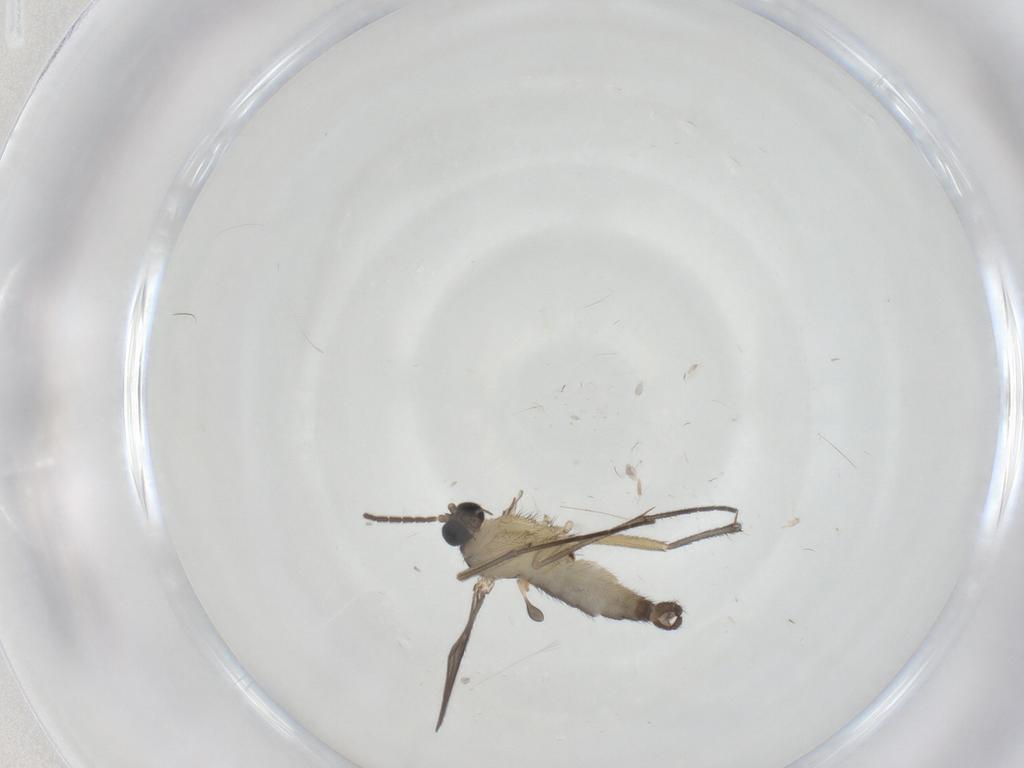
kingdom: Animalia
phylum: Arthropoda
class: Insecta
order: Diptera
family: Sciaridae
